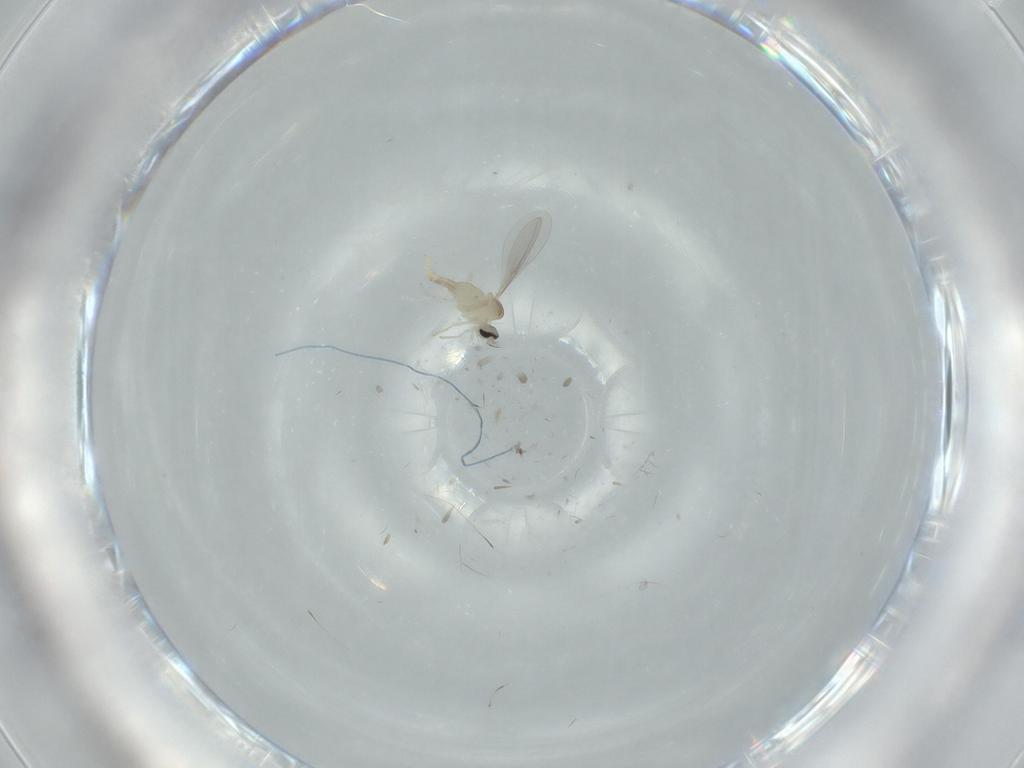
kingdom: Animalia
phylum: Arthropoda
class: Insecta
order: Diptera
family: Cecidomyiidae
